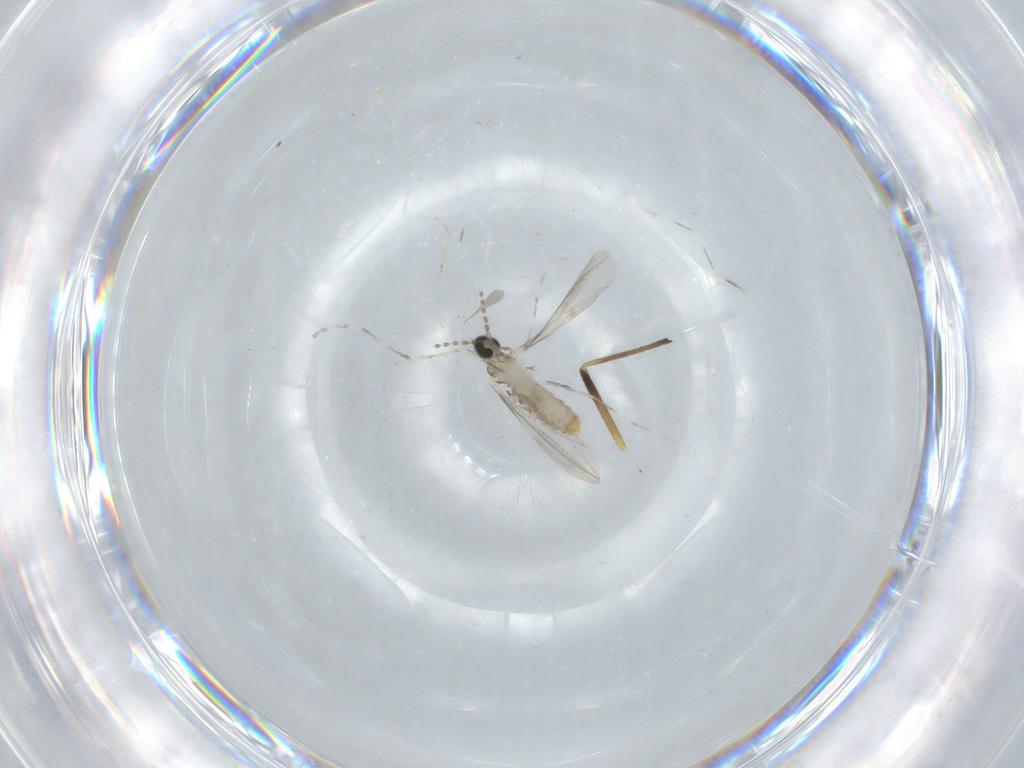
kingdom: Animalia
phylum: Arthropoda
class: Insecta
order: Diptera
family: Cecidomyiidae
